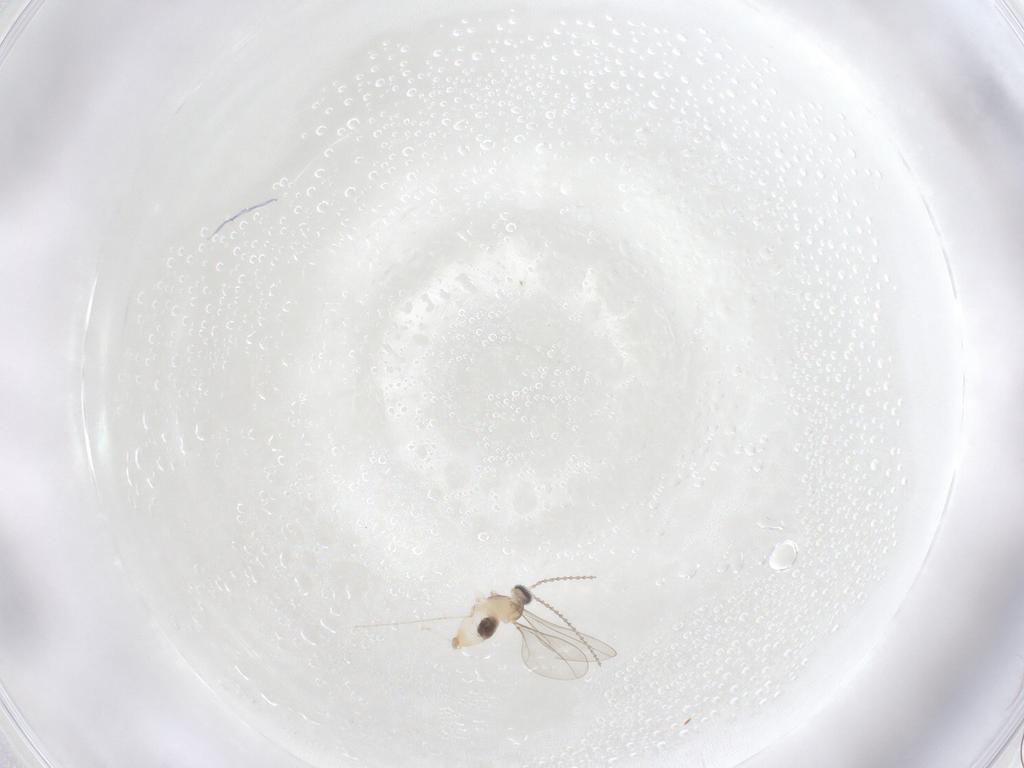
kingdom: Animalia
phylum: Arthropoda
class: Insecta
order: Diptera
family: Cecidomyiidae
